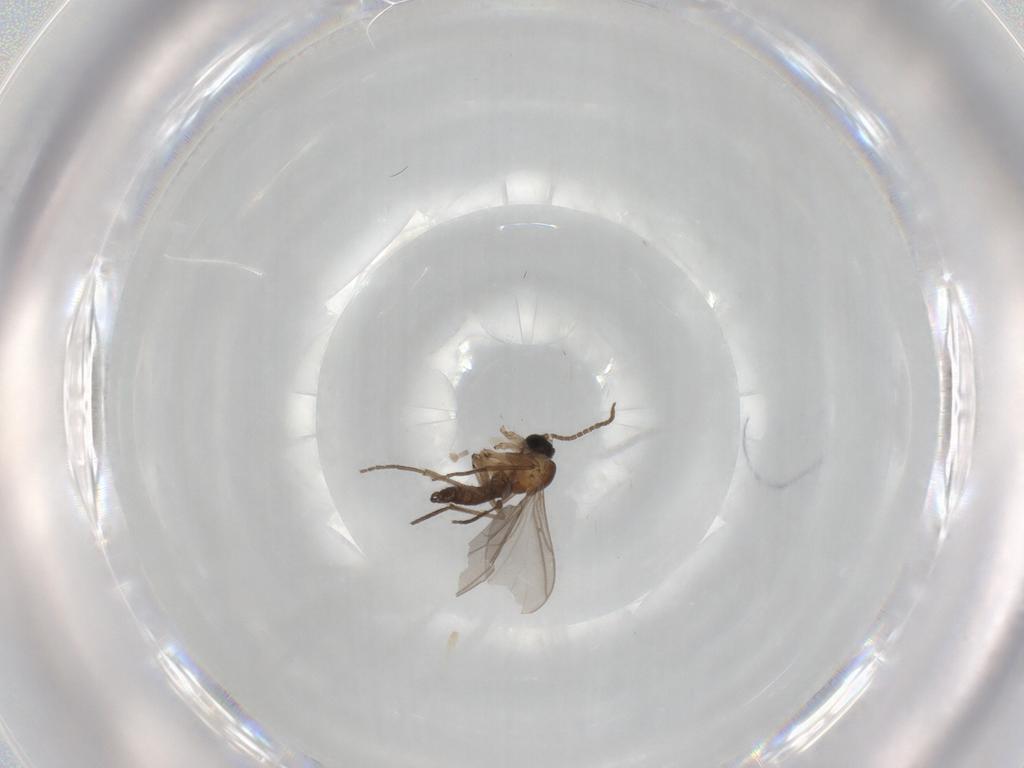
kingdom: Animalia
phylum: Arthropoda
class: Insecta
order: Diptera
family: Sciaridae
